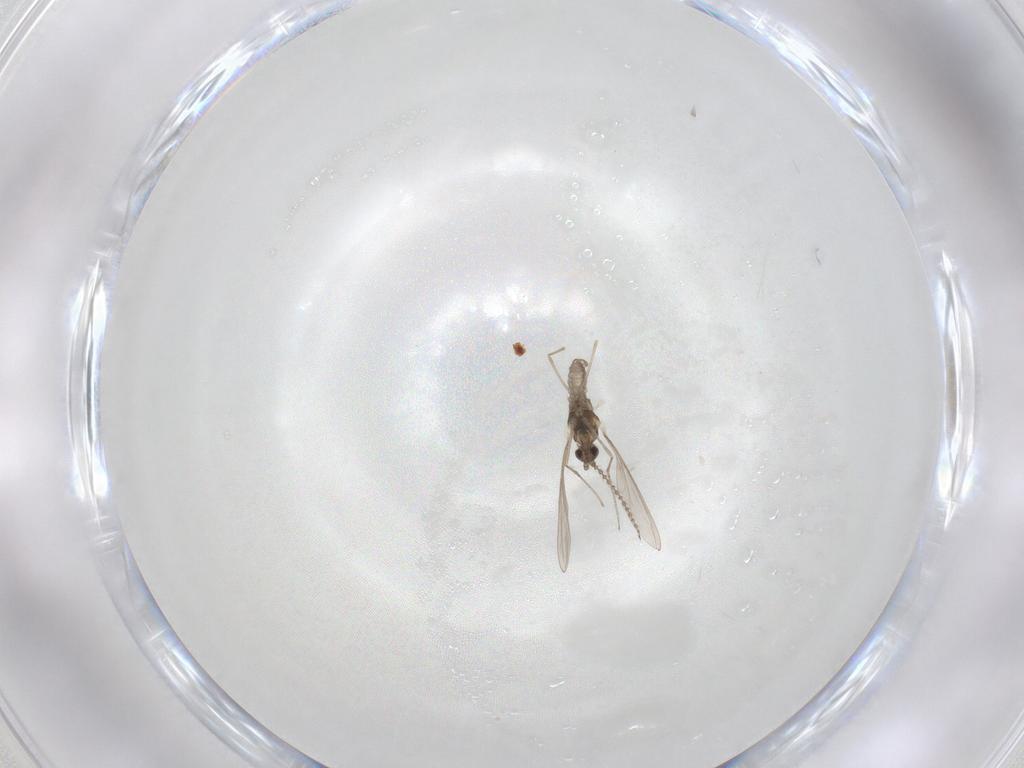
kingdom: Animalia
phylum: Arthropoda
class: Insecta
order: Diptera
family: Cecidomyiidae
